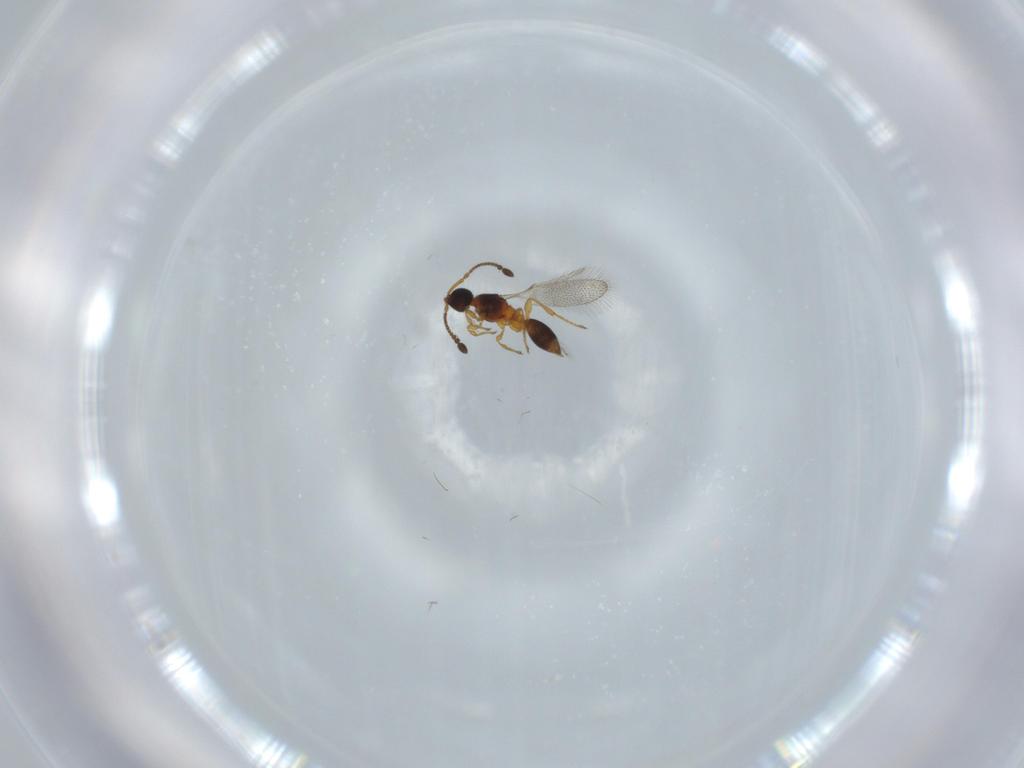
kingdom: Animalia
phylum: Arthropoda
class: Insecta
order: Hymenoptera
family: Diapriidae
